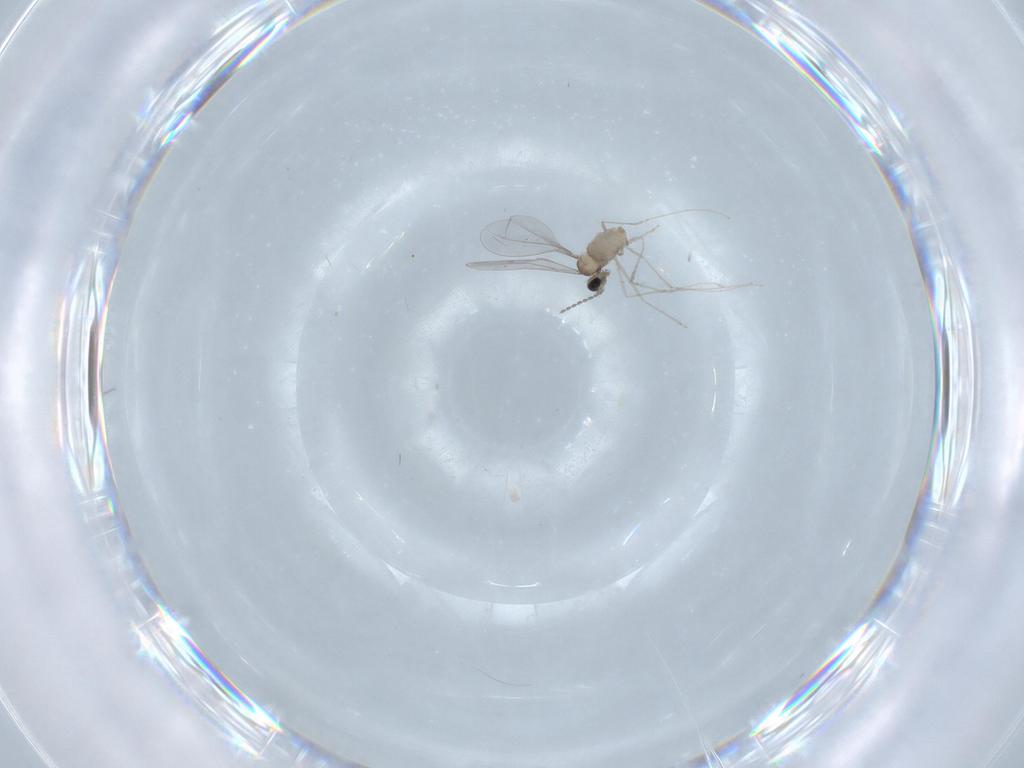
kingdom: Animalia
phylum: Arthropoda
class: Insecta
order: Diptera
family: Cecidomyiidae
